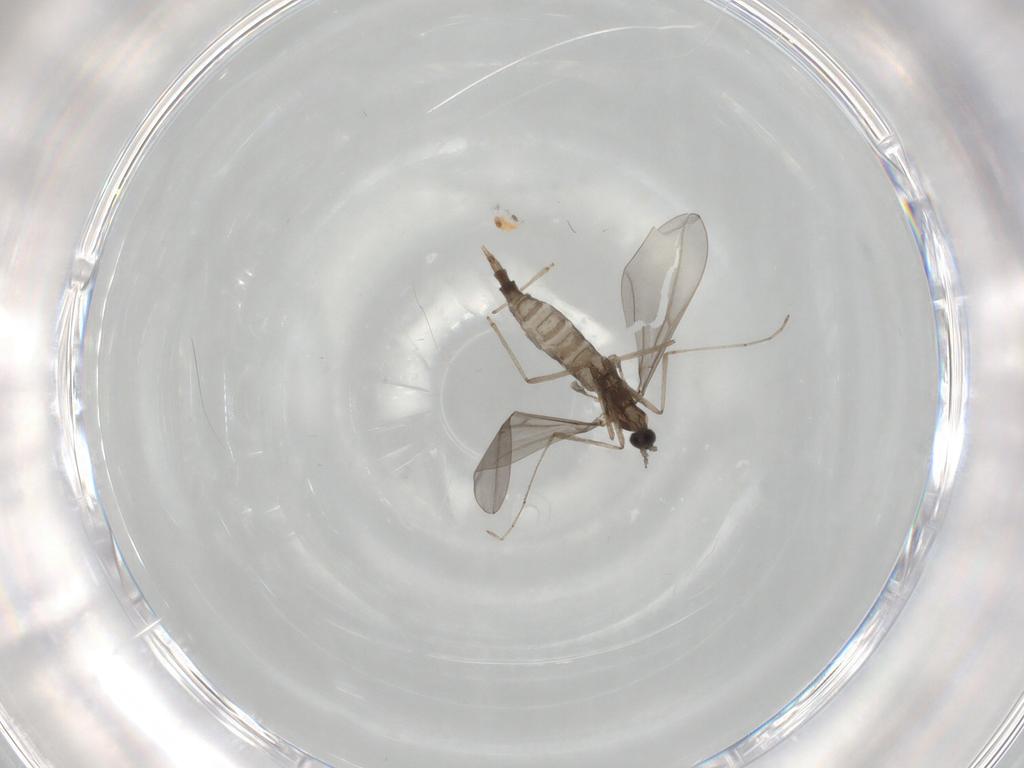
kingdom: Animalia
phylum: Arthropoda
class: Insecta
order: Diptera
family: Cecidomyiidae
